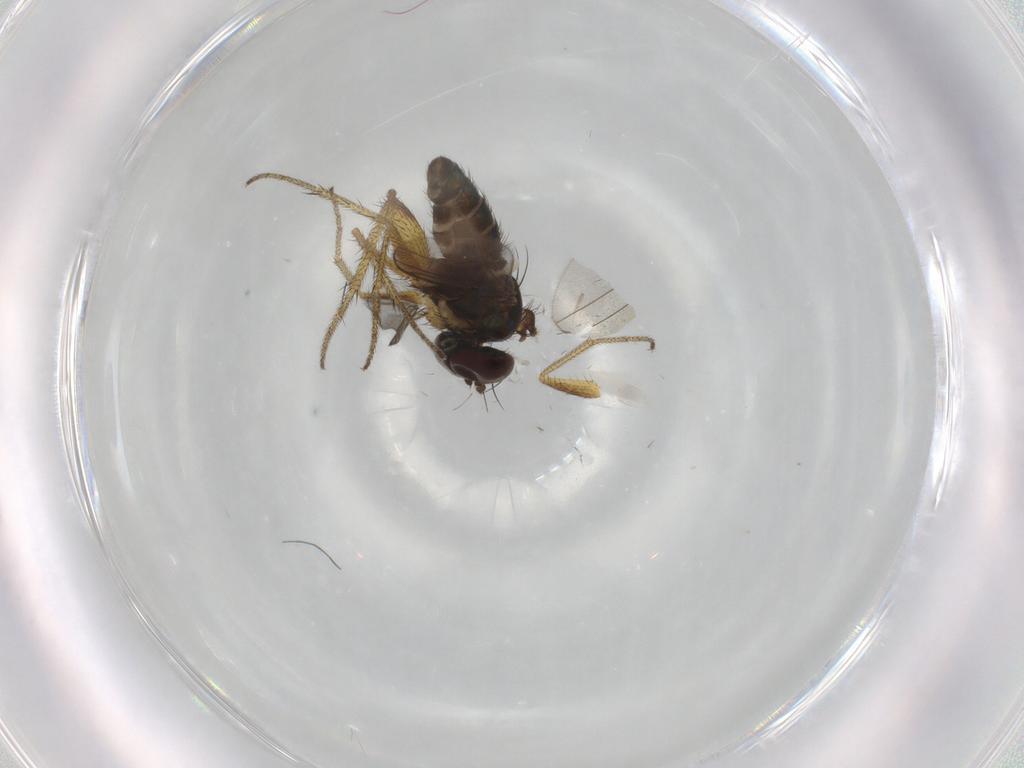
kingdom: Animalia
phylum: Arthropoda
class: Insecta
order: Diptera
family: Dolichopodidae
